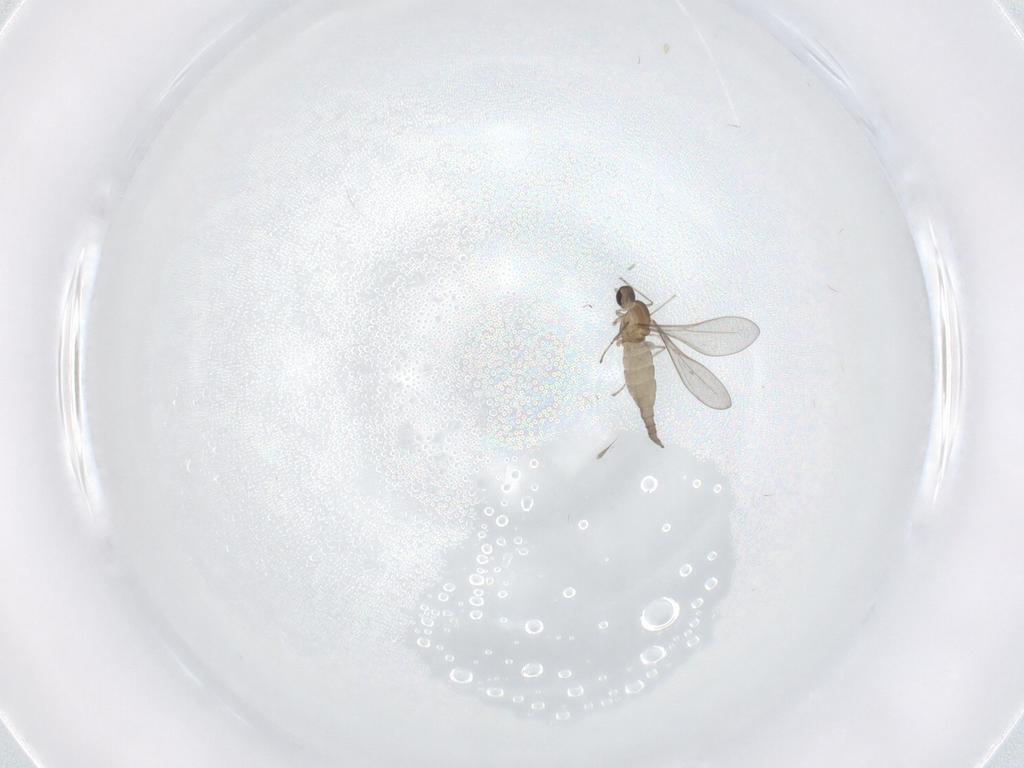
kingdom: Animalia
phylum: Arthropoda
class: Insecta
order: Diptera
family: Cecidomyiidae
